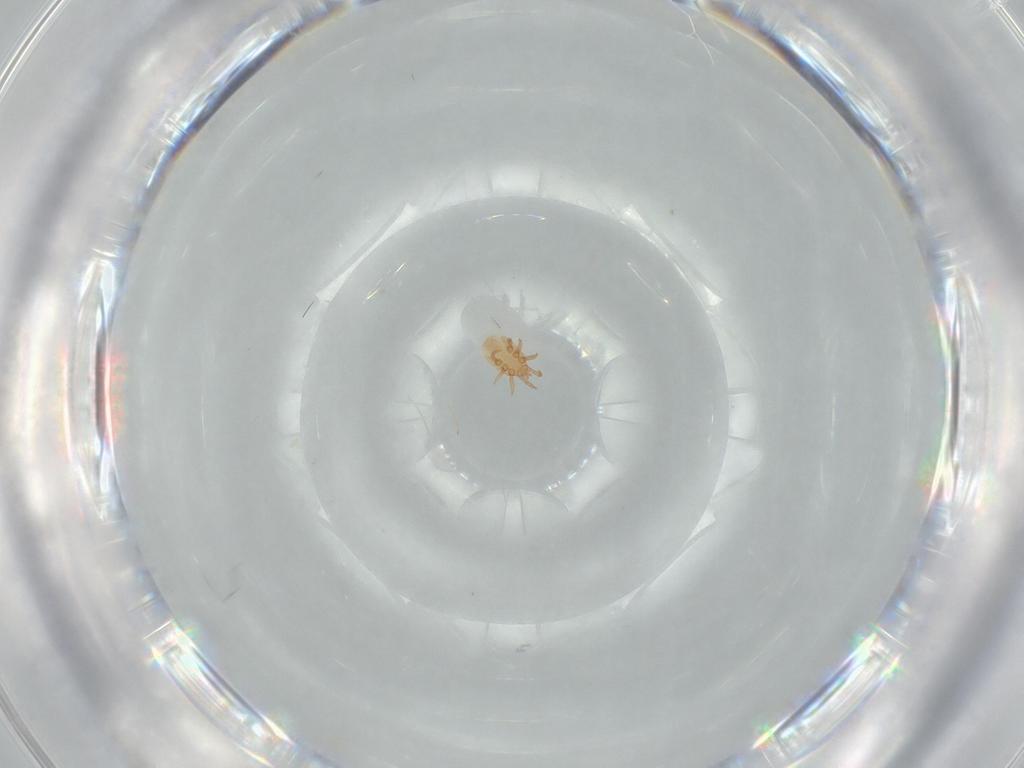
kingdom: Animalia
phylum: Arthropoda
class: Arachnida
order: Mesostigmata
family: Dinychidae
